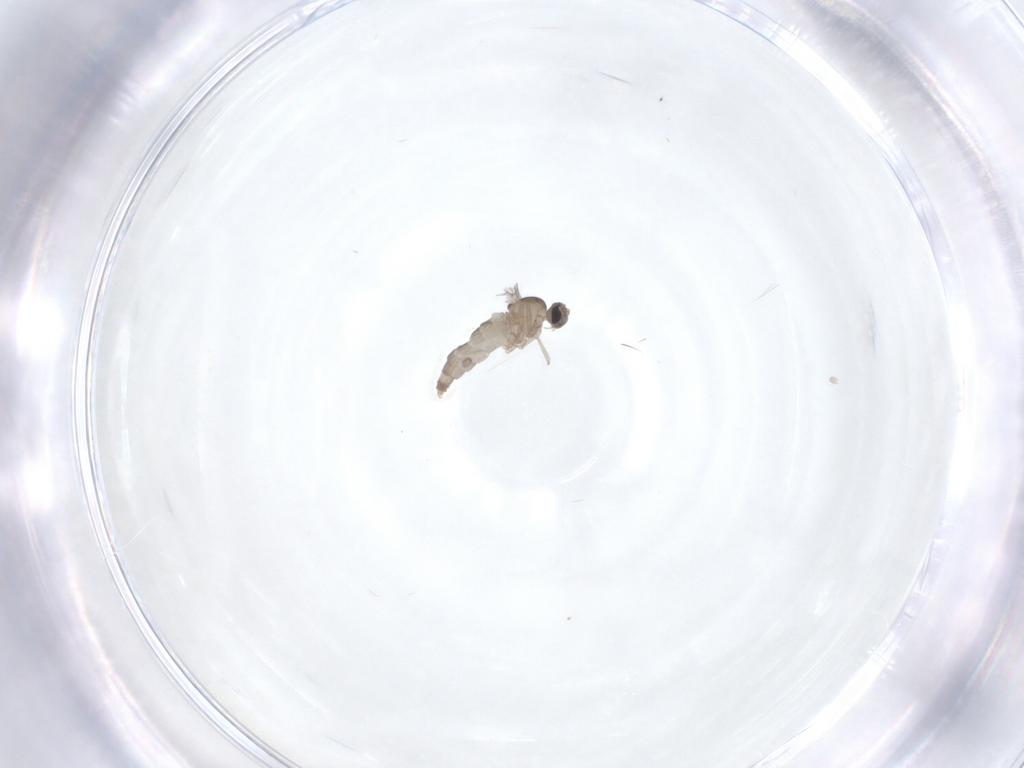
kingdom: Animalia
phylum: Arthropoda
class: Insecta
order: Diptera
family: Cecidomyiidae
